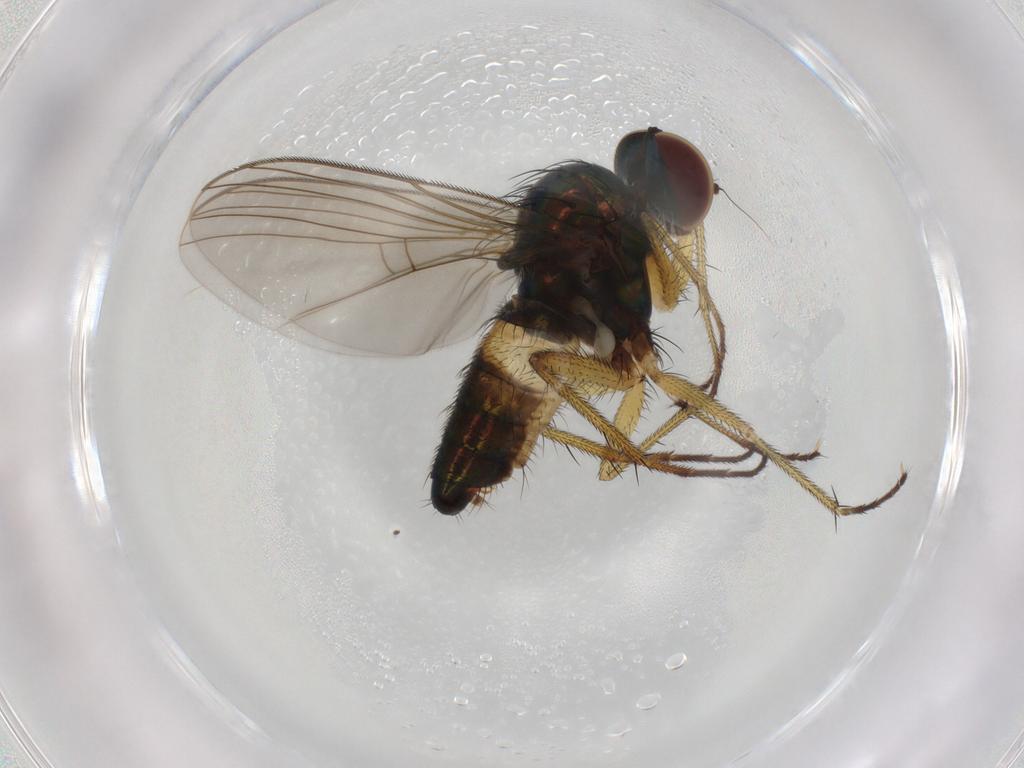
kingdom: Animalia
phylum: Arthropoda
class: Insecta
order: Diptera
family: Dolichopodidae
